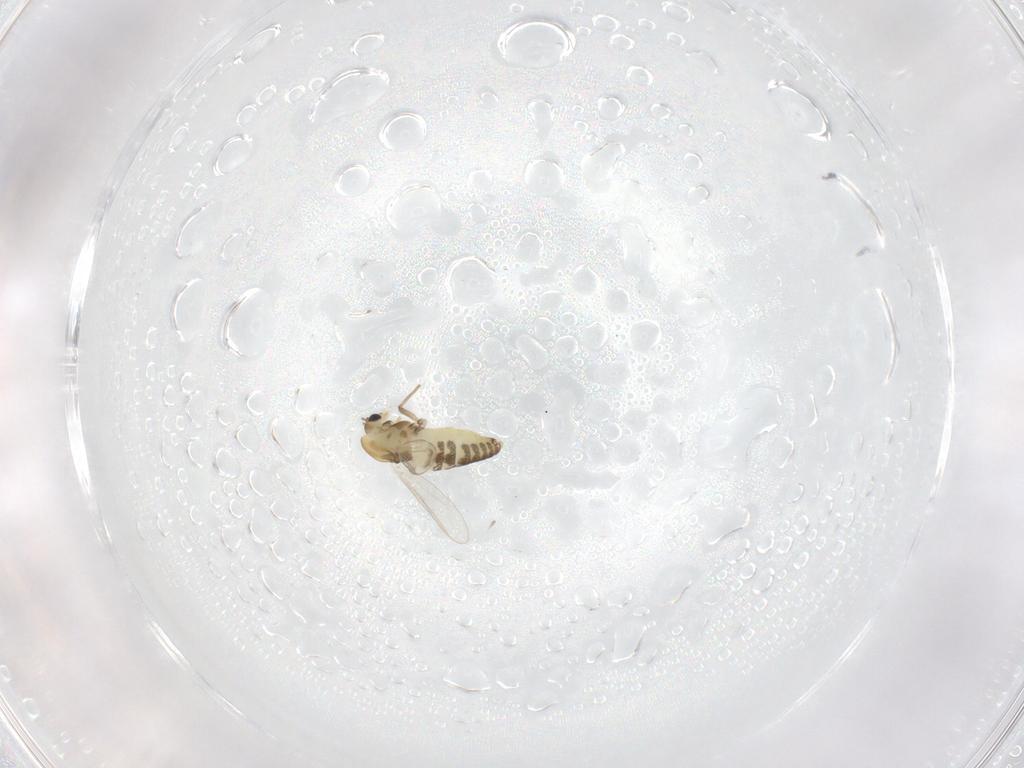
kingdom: Animalia
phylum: Arthropoda
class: Insecta
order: Diptera
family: Chironomidae
